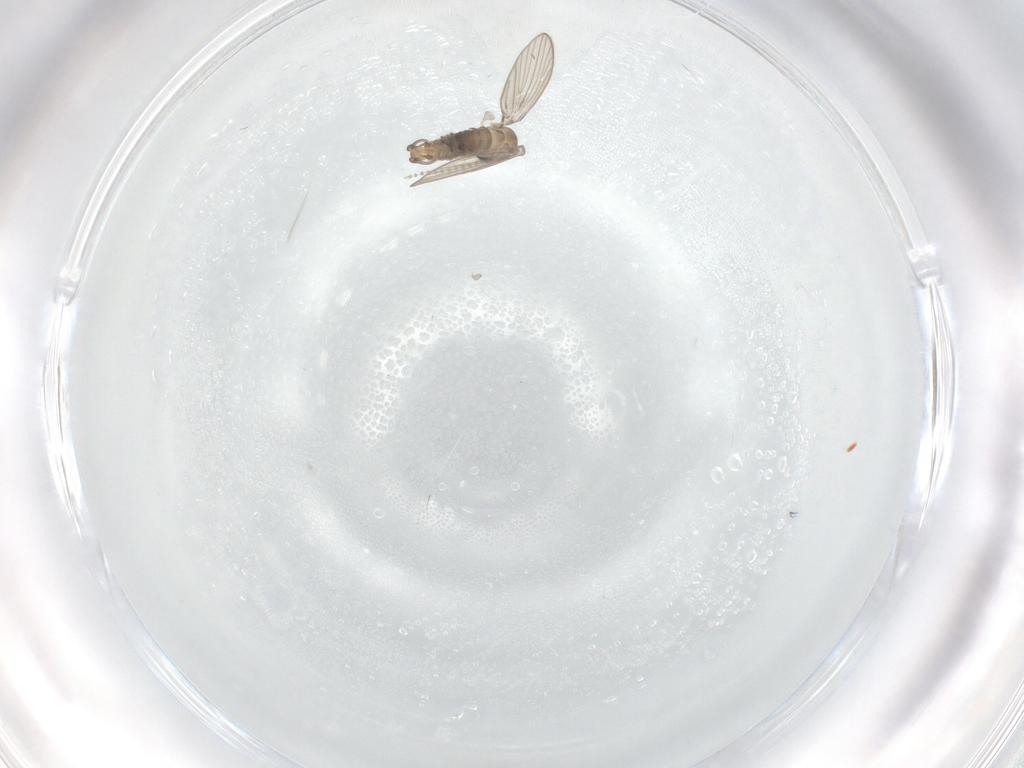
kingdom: Animalia
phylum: Arthropoda
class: Insecta
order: Diptera
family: Psychodidae
